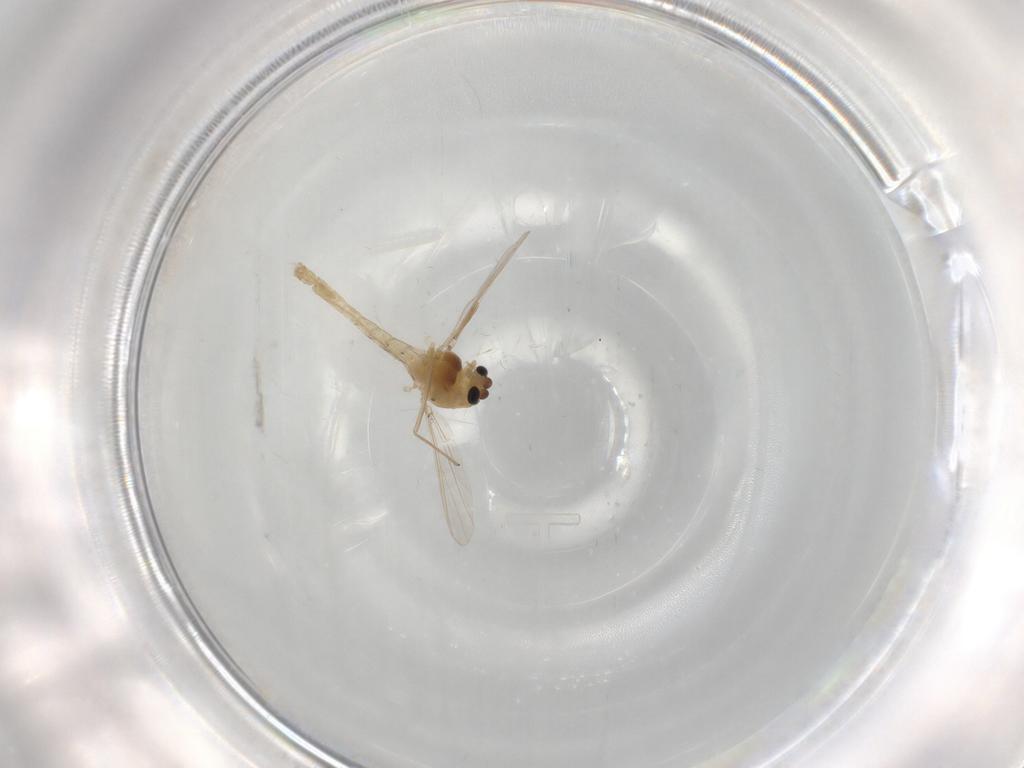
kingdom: Animalia
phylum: Arthropoda
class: Insecta
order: Diptera
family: Chironomidae
